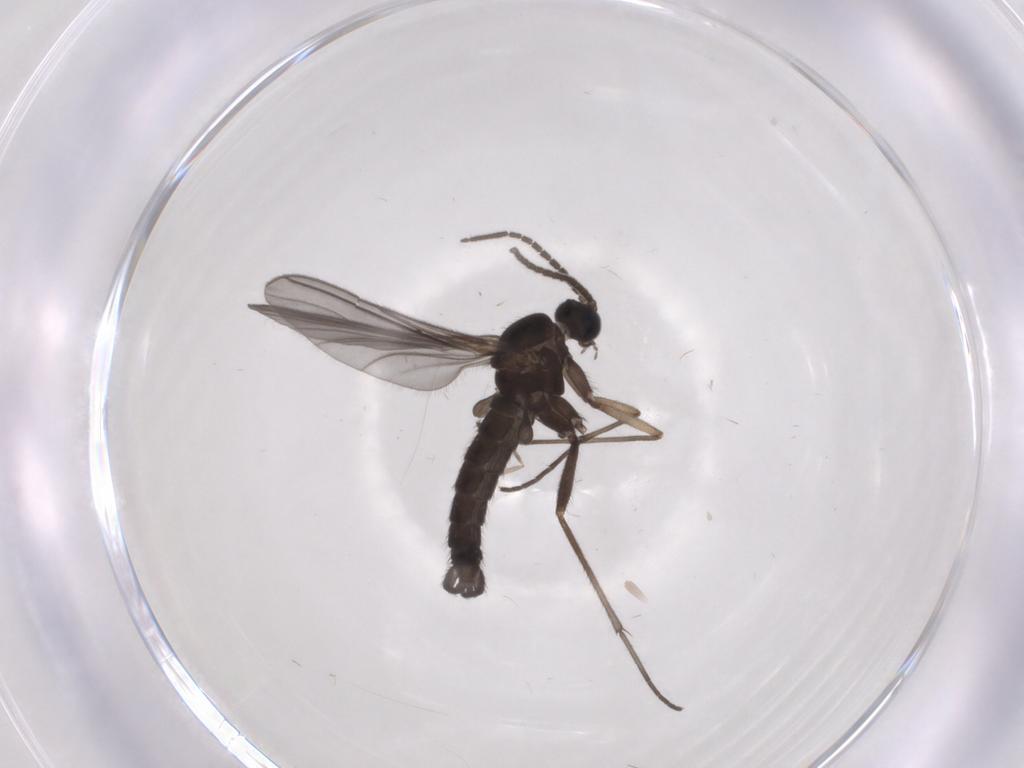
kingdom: Animalia
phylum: Arthropoda
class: Insecta
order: Diptera
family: Sciaridae
